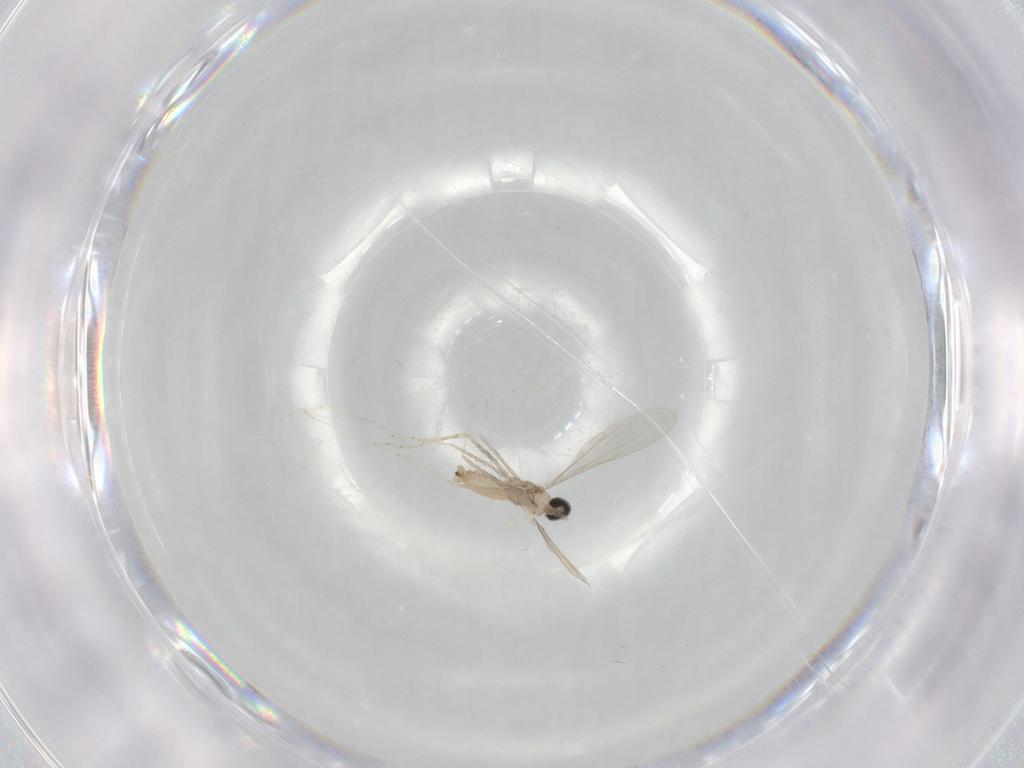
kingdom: Animalia
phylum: Arthropoda
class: Insecta
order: Diptera
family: Cecidomyiidae
